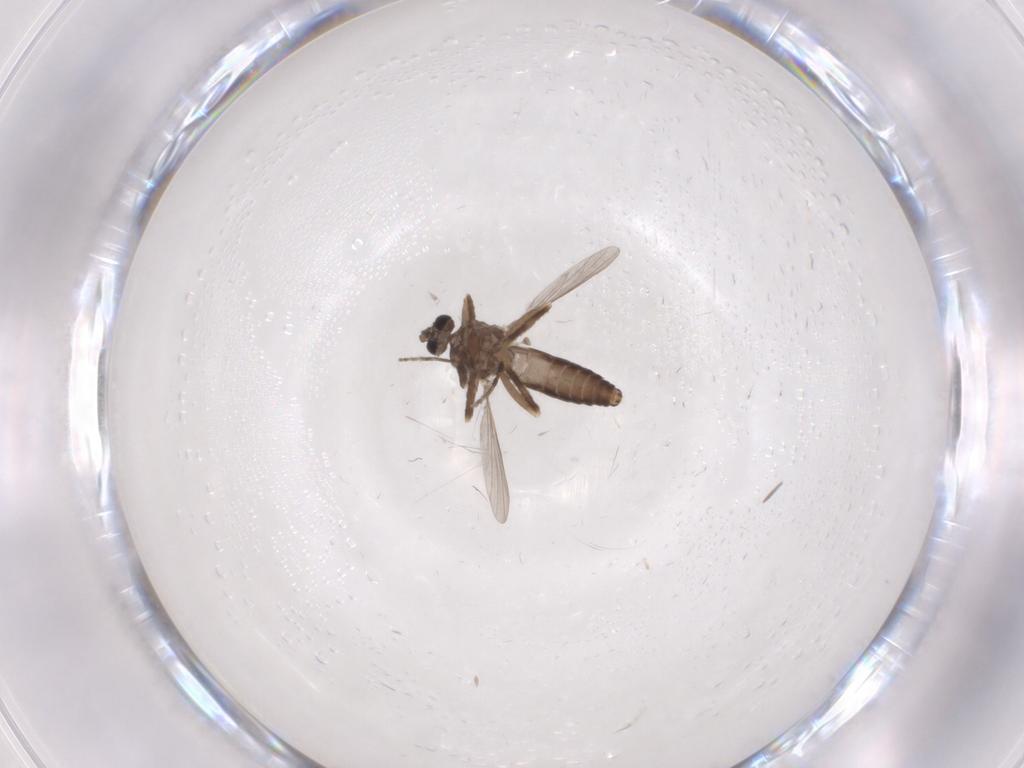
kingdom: Animalia
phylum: Arthropoda
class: Insecta
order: Diptera
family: Ceratopogonidae
